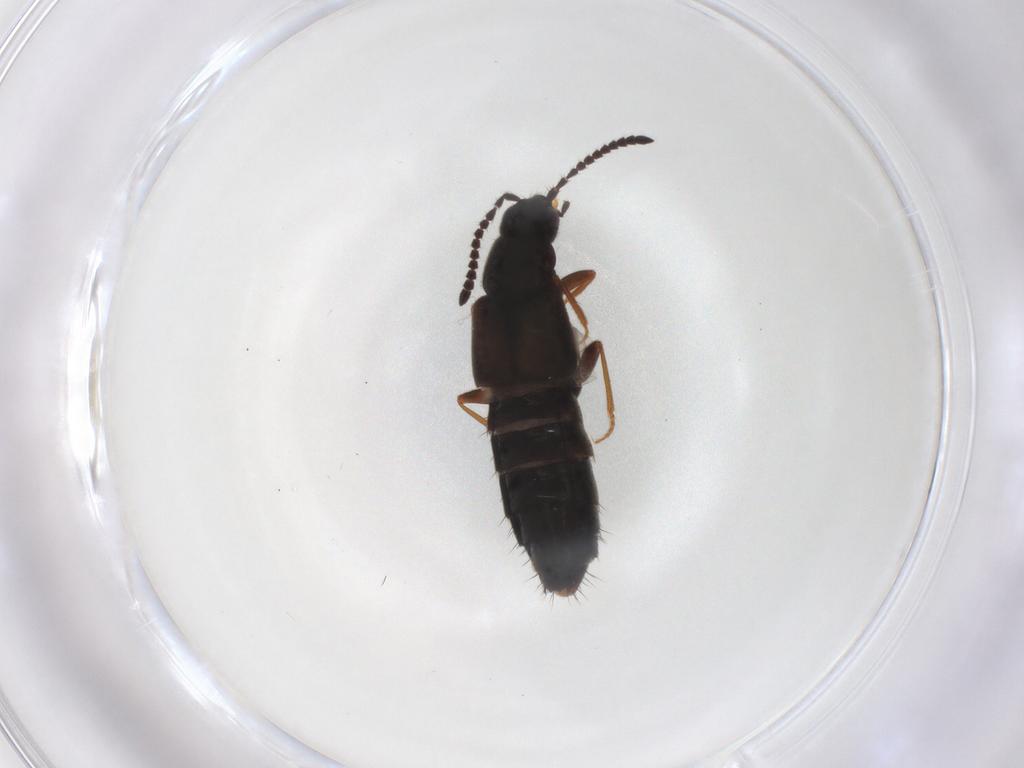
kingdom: Animalia
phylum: Arthropoda
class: Insecta
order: Coleoptera
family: Staphylinidae
